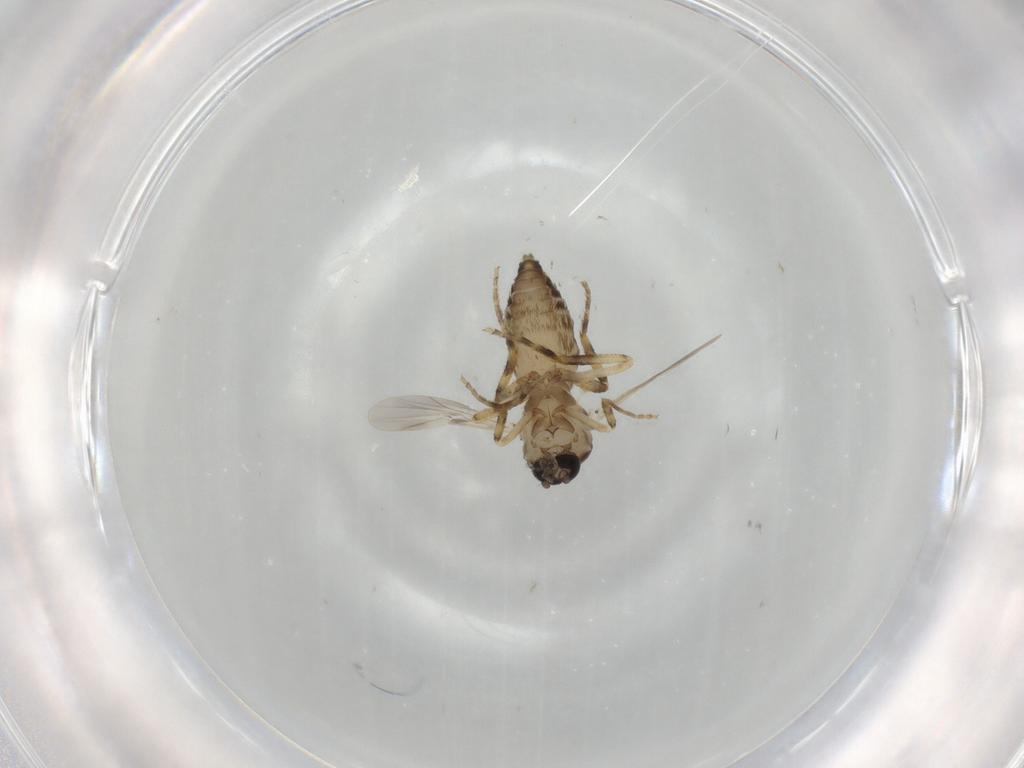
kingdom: Animalia
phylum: Arthropoda
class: Insecta
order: Diptera
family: Ceratopogonidae
